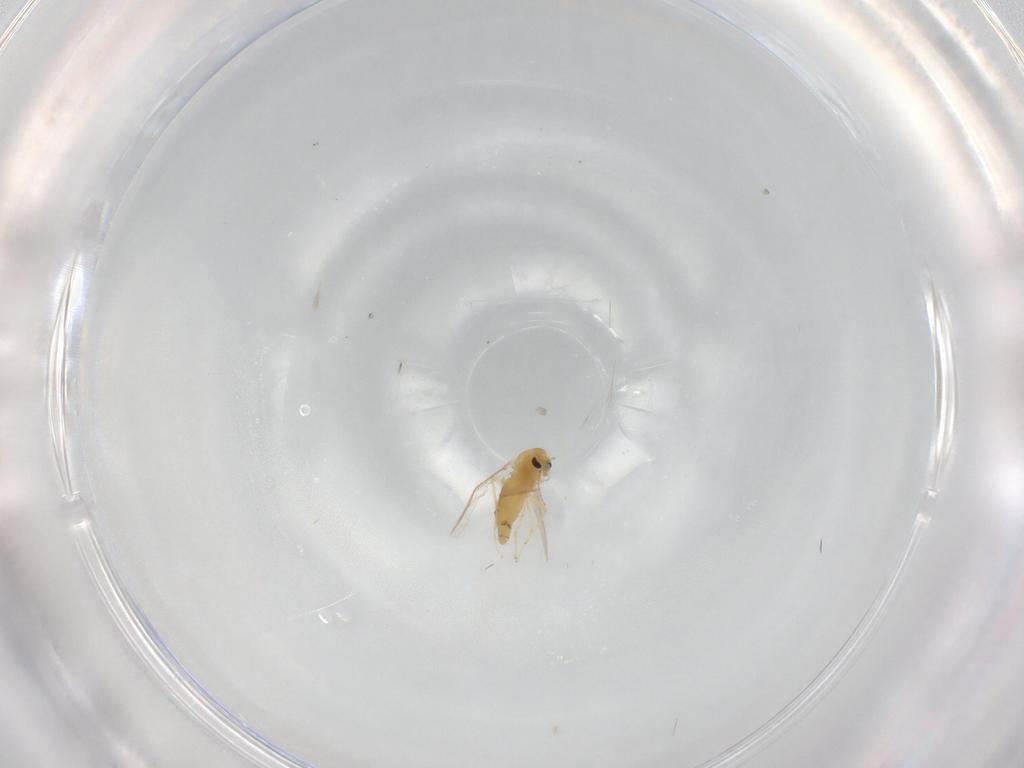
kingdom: Animalia
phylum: Arthropoda
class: Insecta
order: Diptera
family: Chironomidae
